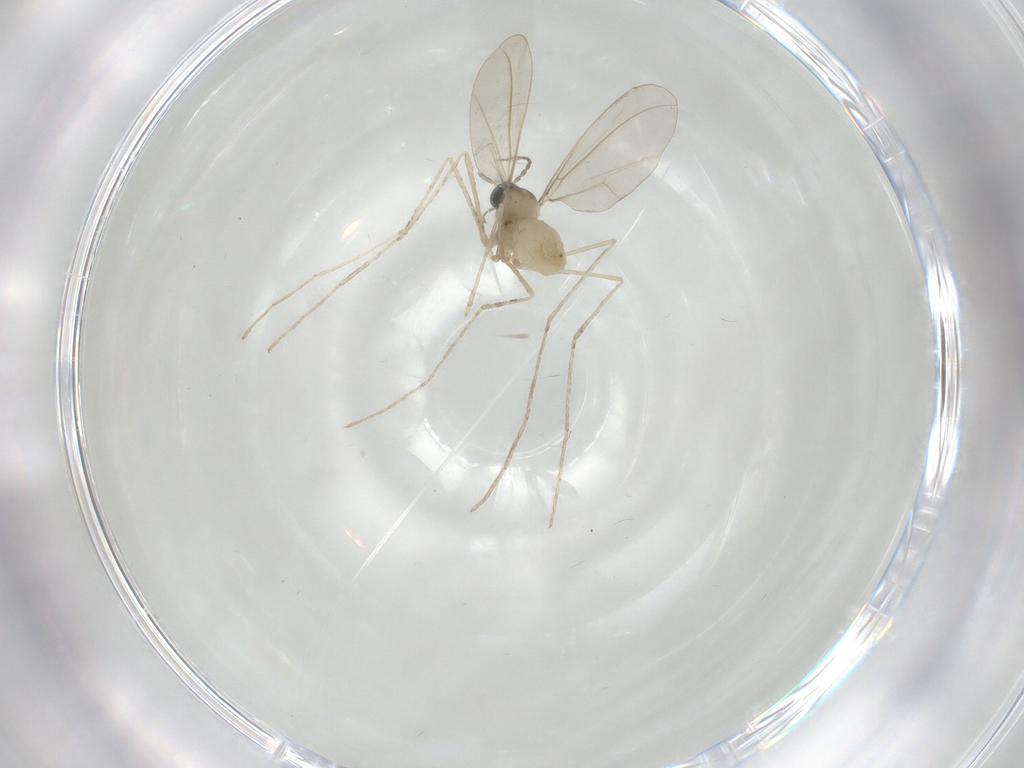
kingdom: Animalia
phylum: Arthropoda
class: Insecta
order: Diptera
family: Cecidomyiidae
